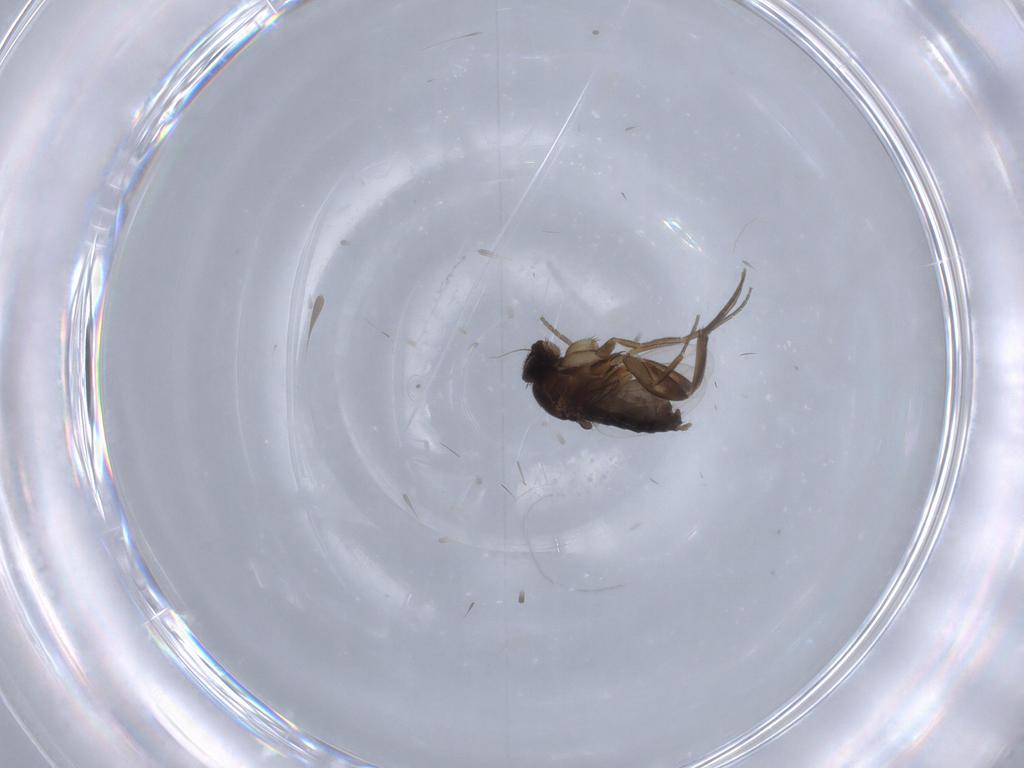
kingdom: Animalia
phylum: Arthropoda
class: Insecta
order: Diptera
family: Phoridae
